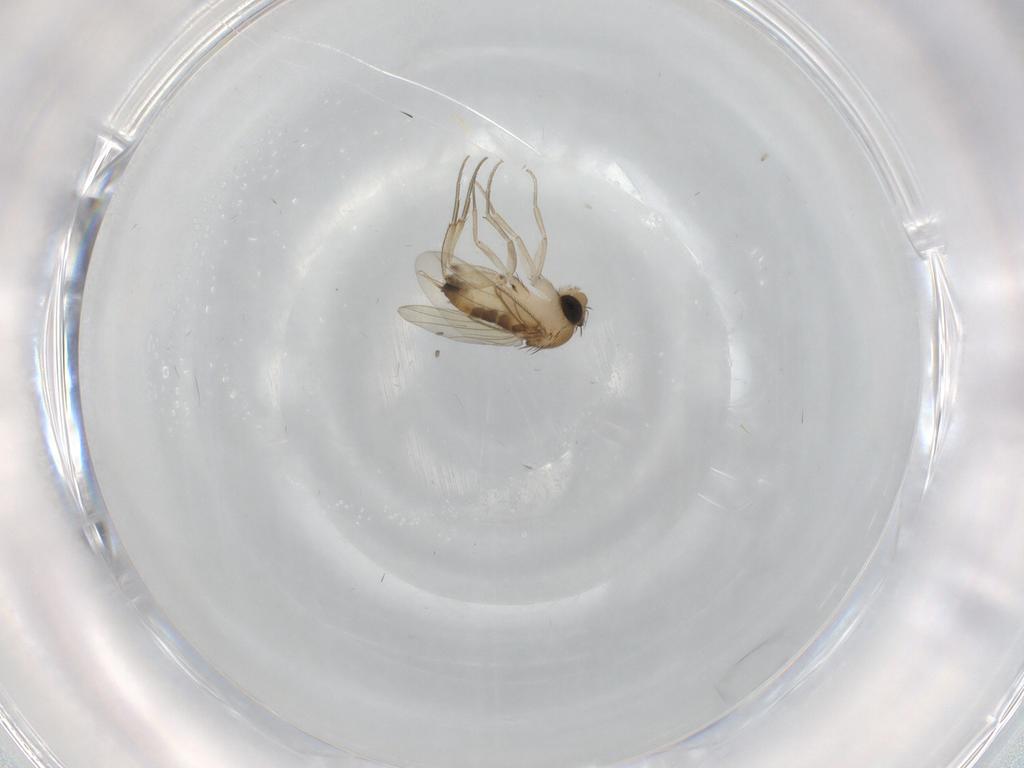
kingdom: Animalia
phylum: Arthropoda
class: Insecta
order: Diptera
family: Phoridae
